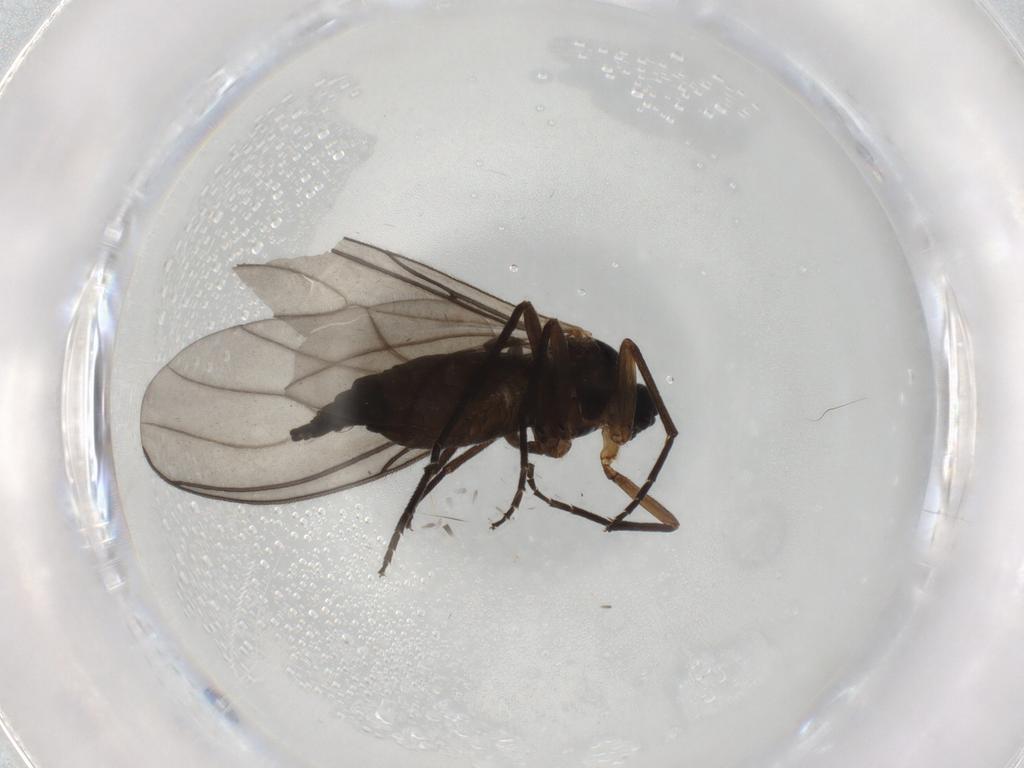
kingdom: Animalia
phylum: Arthropoda
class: Insecta
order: Diptera
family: Sciaridae
